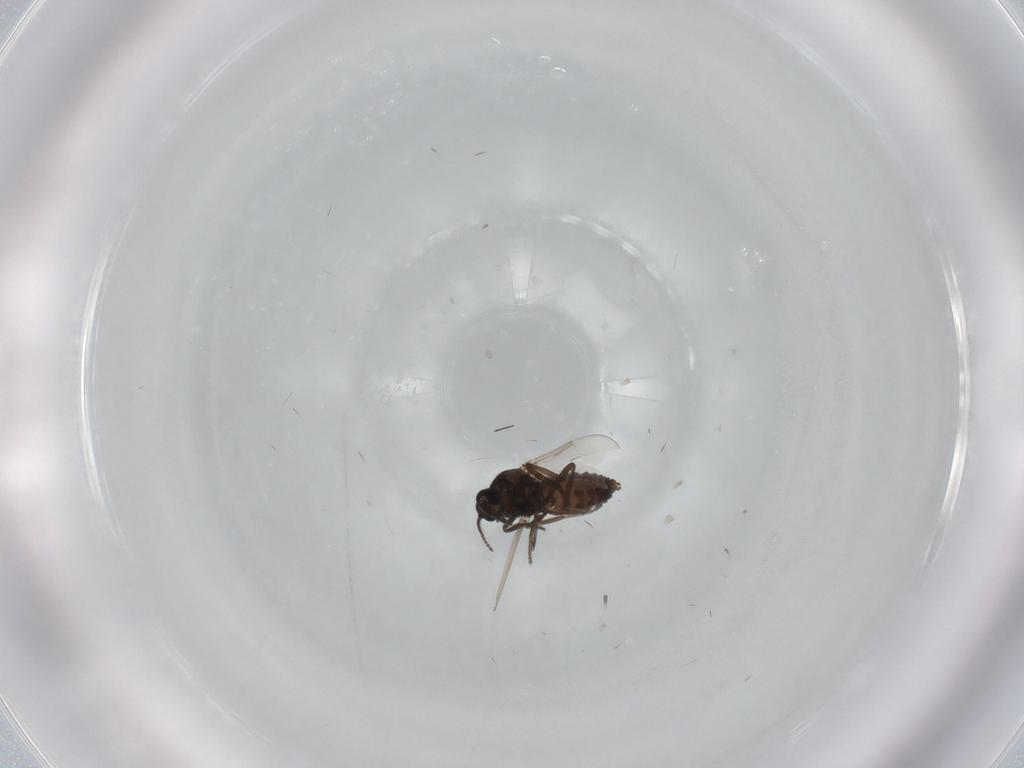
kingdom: Animalia
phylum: Arthropoda
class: Insecta
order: Diptera
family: Ceratopogonidae
